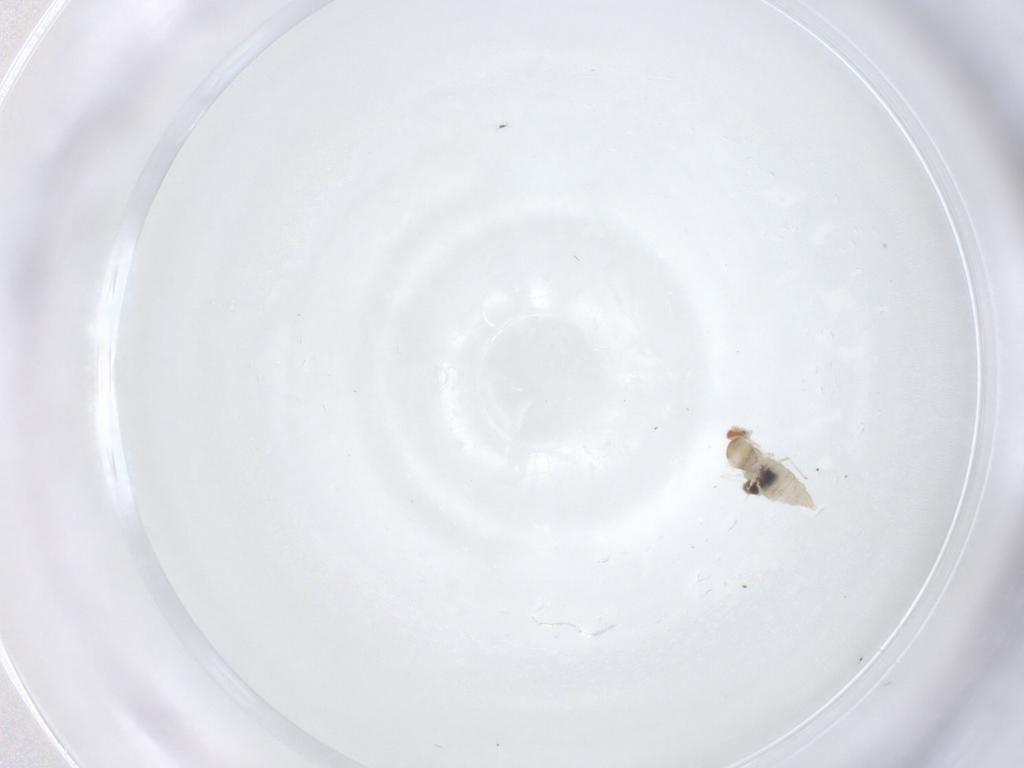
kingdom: Animalia
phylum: Arthropoda
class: Insecta
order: Diptera
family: Cecidomyiidae
